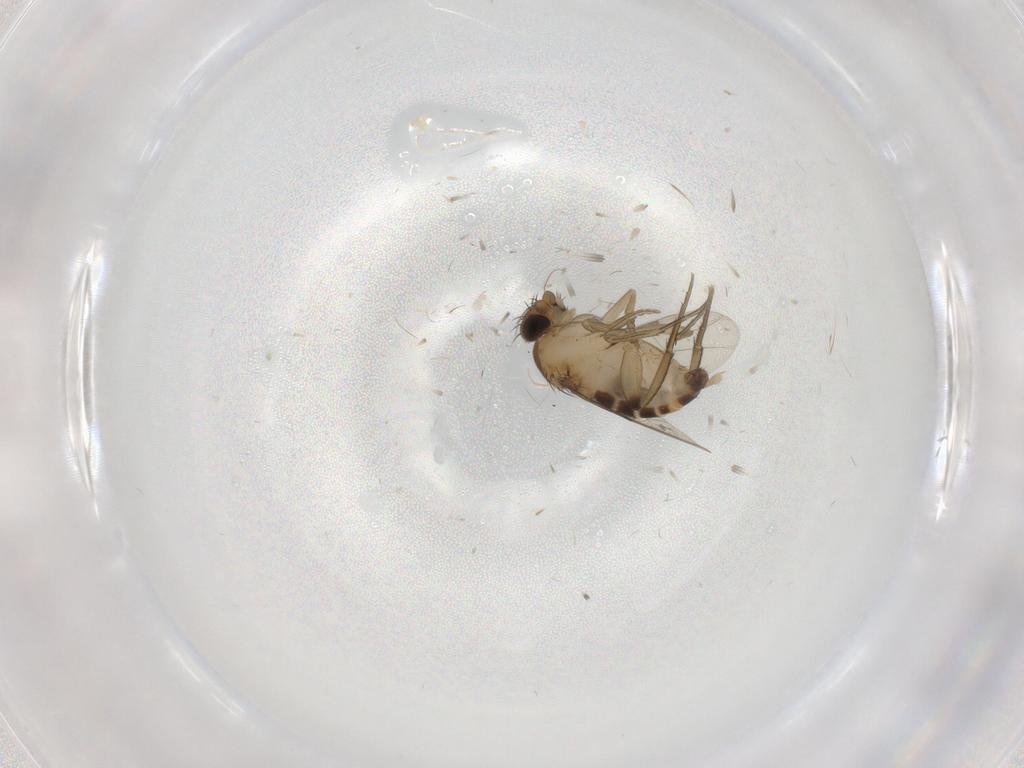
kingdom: Animalia
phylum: Arthropoda
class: Insecta
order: Diptera
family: Phoridae
